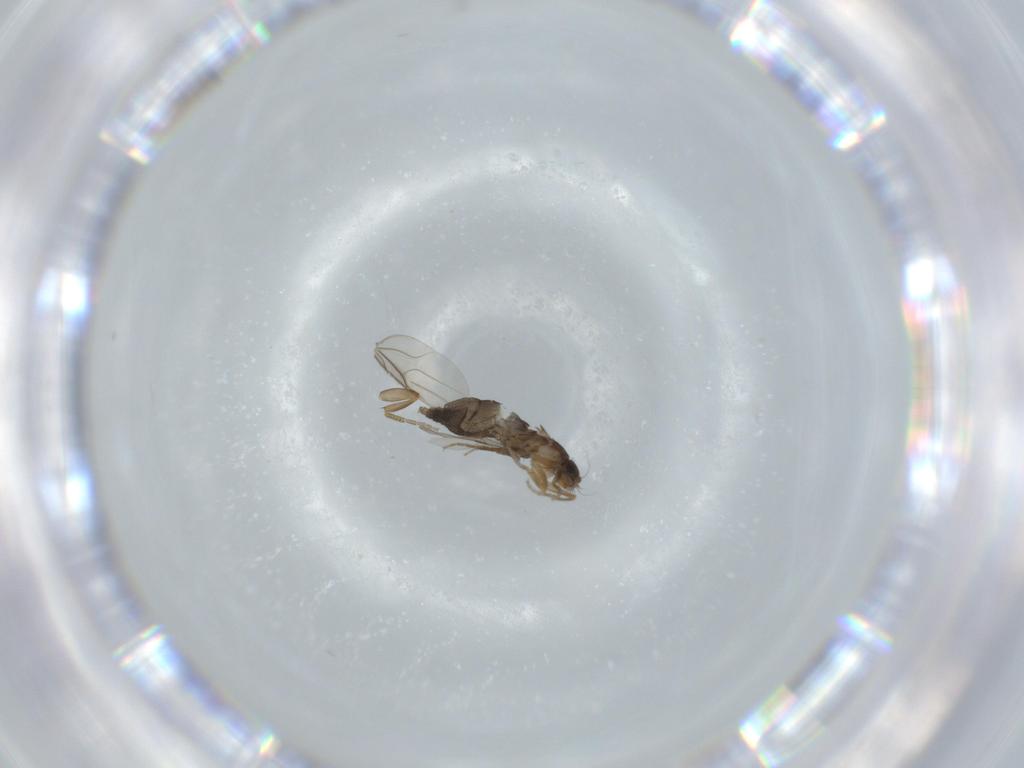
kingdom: Animalia
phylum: Arthropoda
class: Insecta
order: Diptera
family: Phoridae
